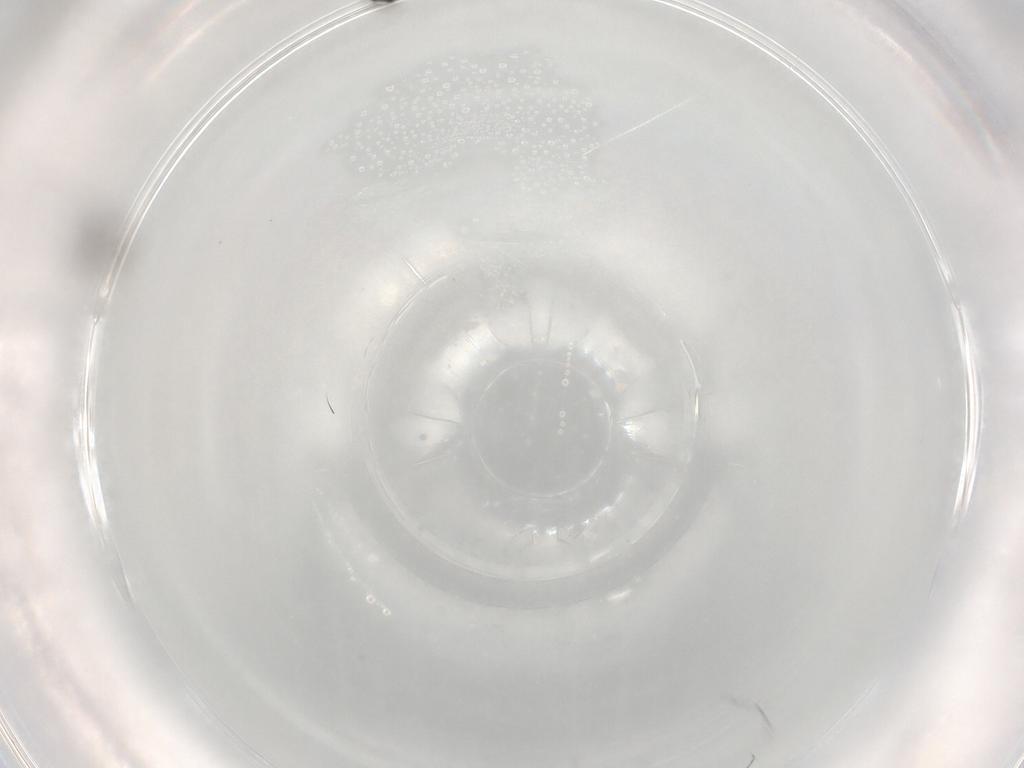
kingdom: Animalia
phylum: Arthropoda
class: Insecta
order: Hymenoptera
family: Scelionidae
